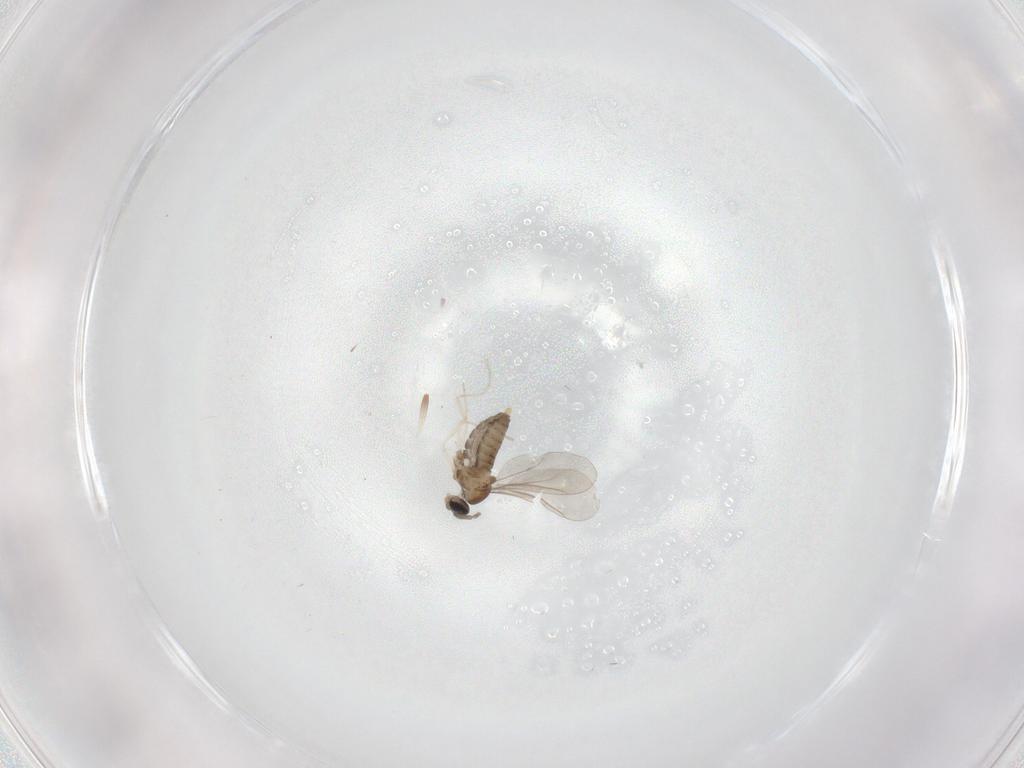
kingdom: Animalia
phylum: Arthropoda
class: Insecta
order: Diptera
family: Cecidomyiidae
